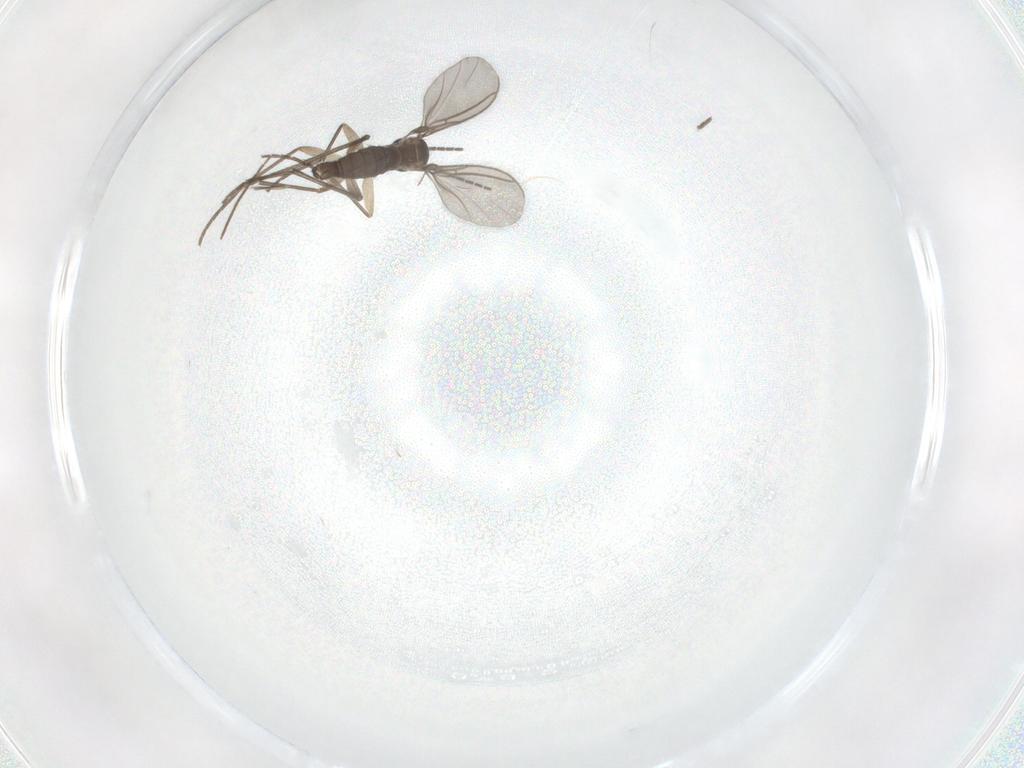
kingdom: Animalia
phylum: Arthropoda
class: Insecta
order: Diptera
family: Sciaridae
